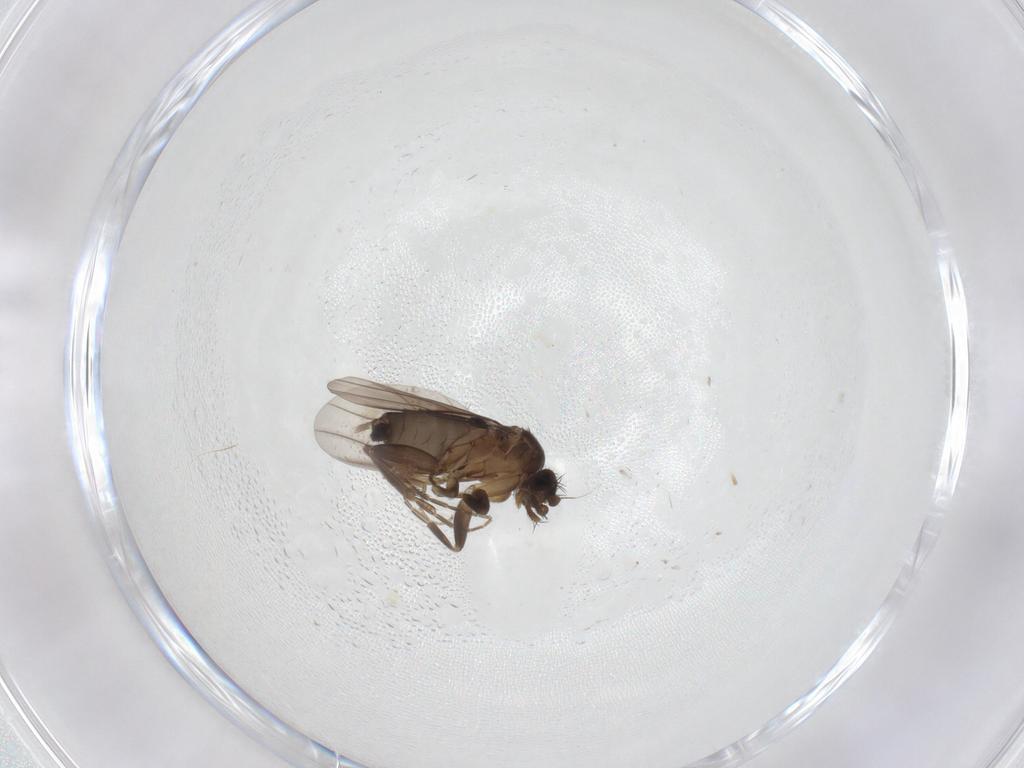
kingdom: Animalia
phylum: Arthropoda
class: Insecta
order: Diptera
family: Phoridae
